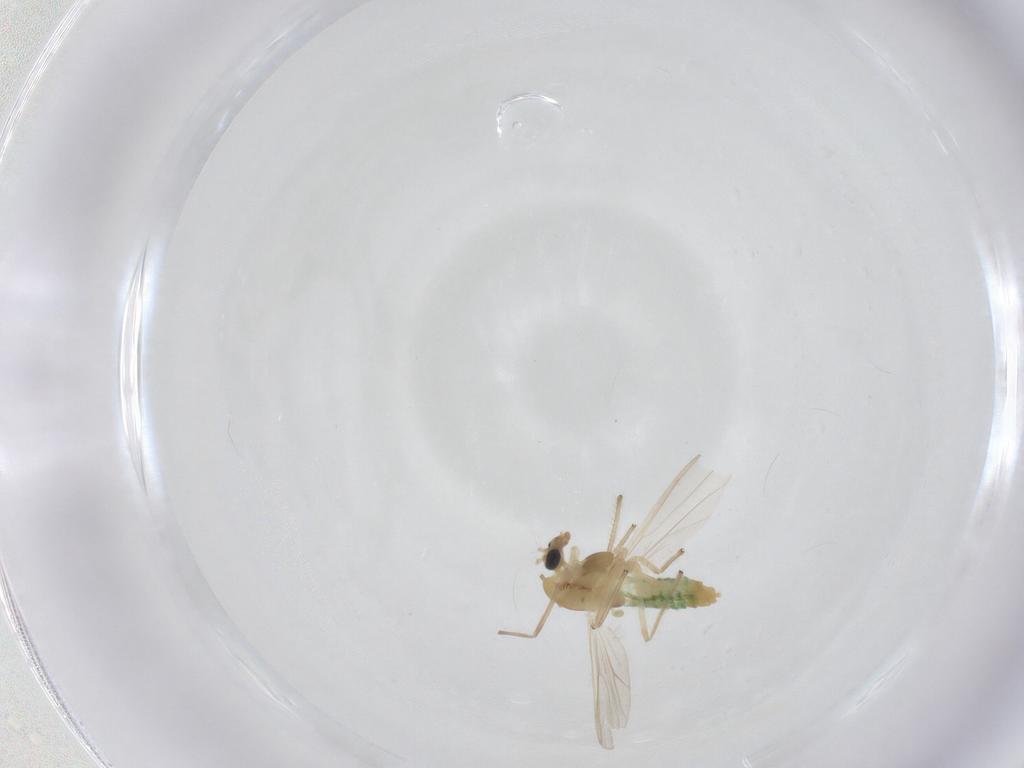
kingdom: Animalia
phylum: Arthropoda
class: Insecta
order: Diptera
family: Chironomidae
